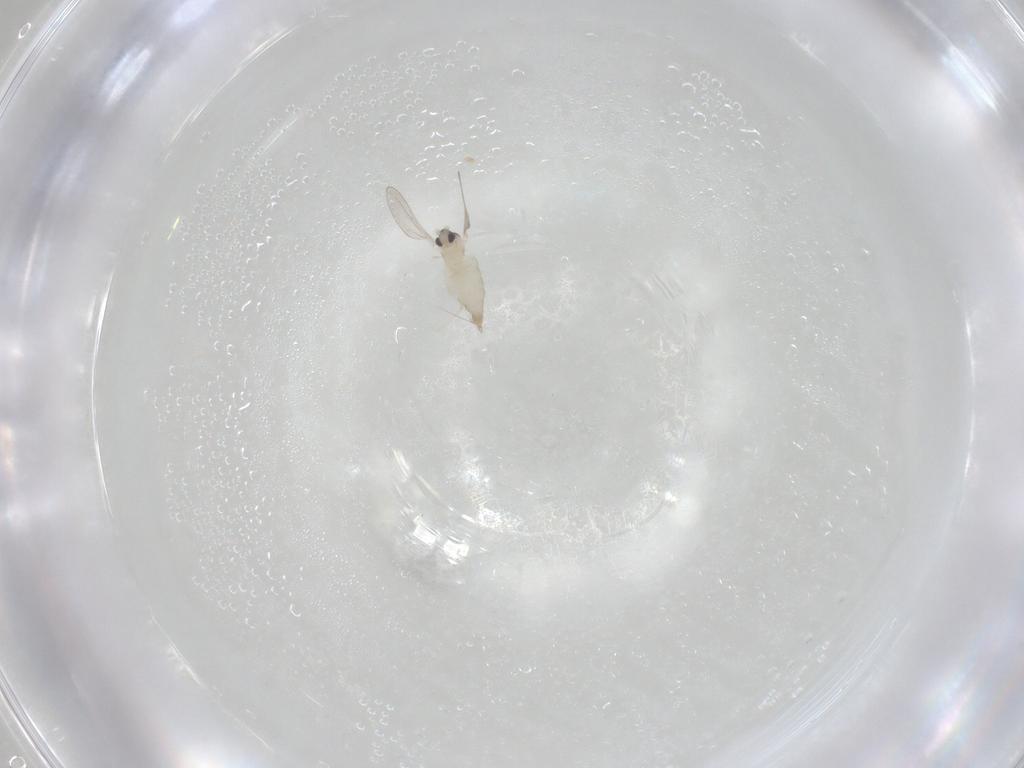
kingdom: Animalia
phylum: Arthropoda
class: Insecta
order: Diptera
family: Cecidomyiidae
